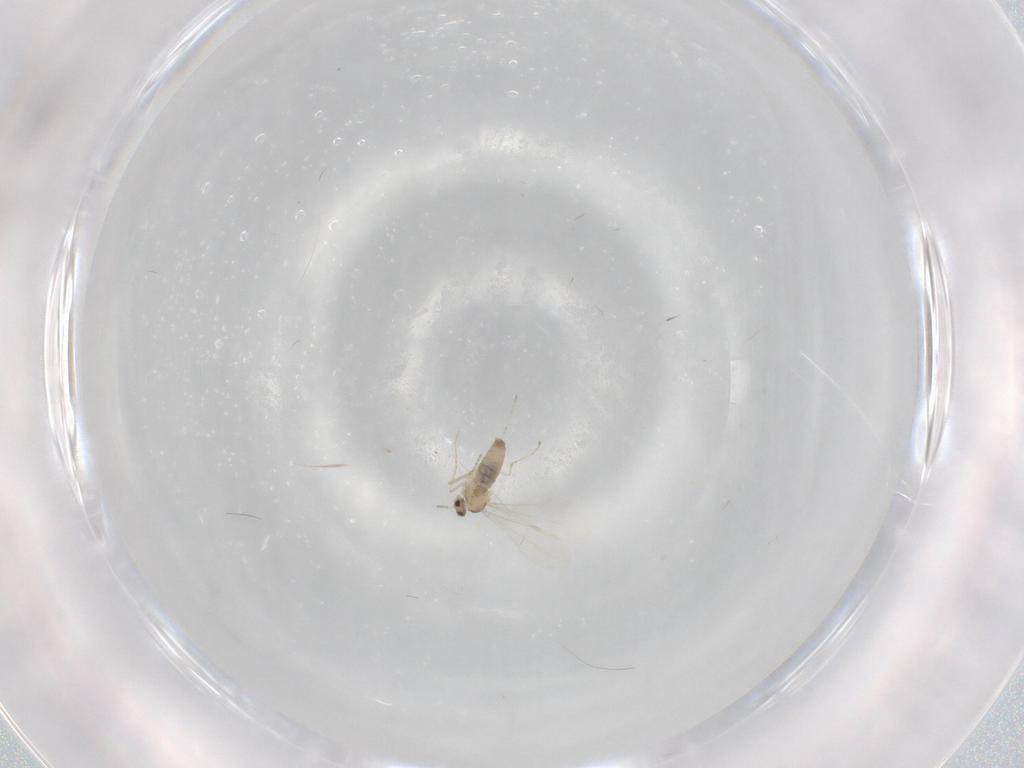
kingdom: Animalia
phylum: Arthropoda
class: Insecta
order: Diptera
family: Cecidomyiidae
